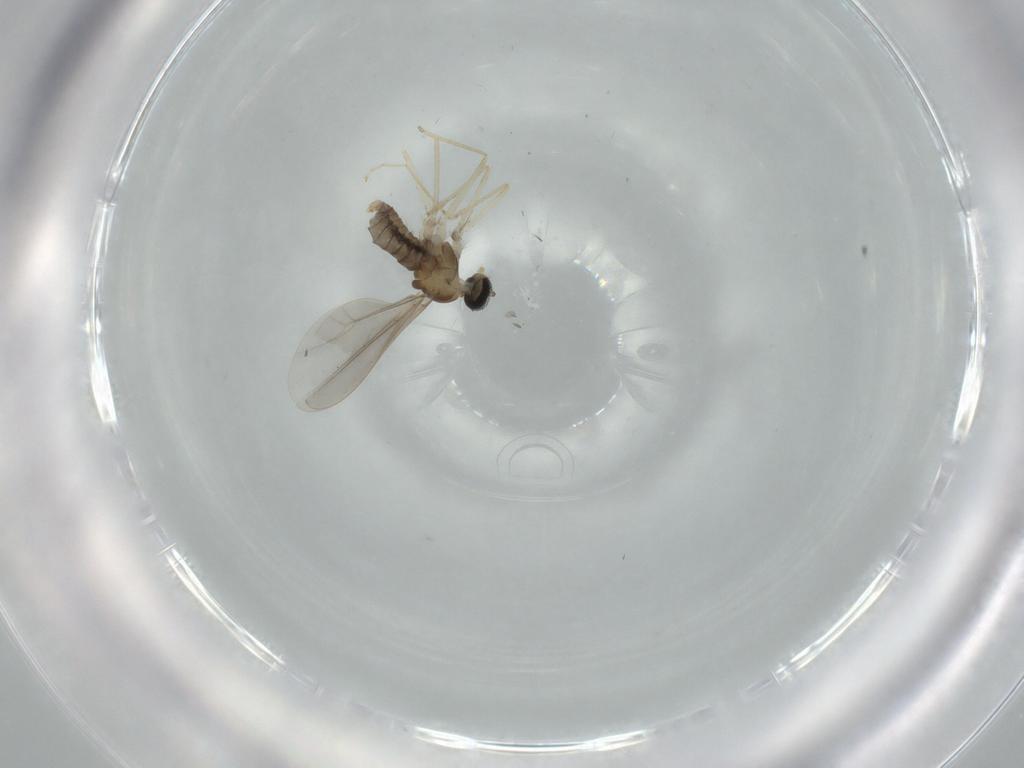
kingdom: Animalia
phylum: Arthropoda
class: Insecta
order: Diptera
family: Cecidomyiidae
